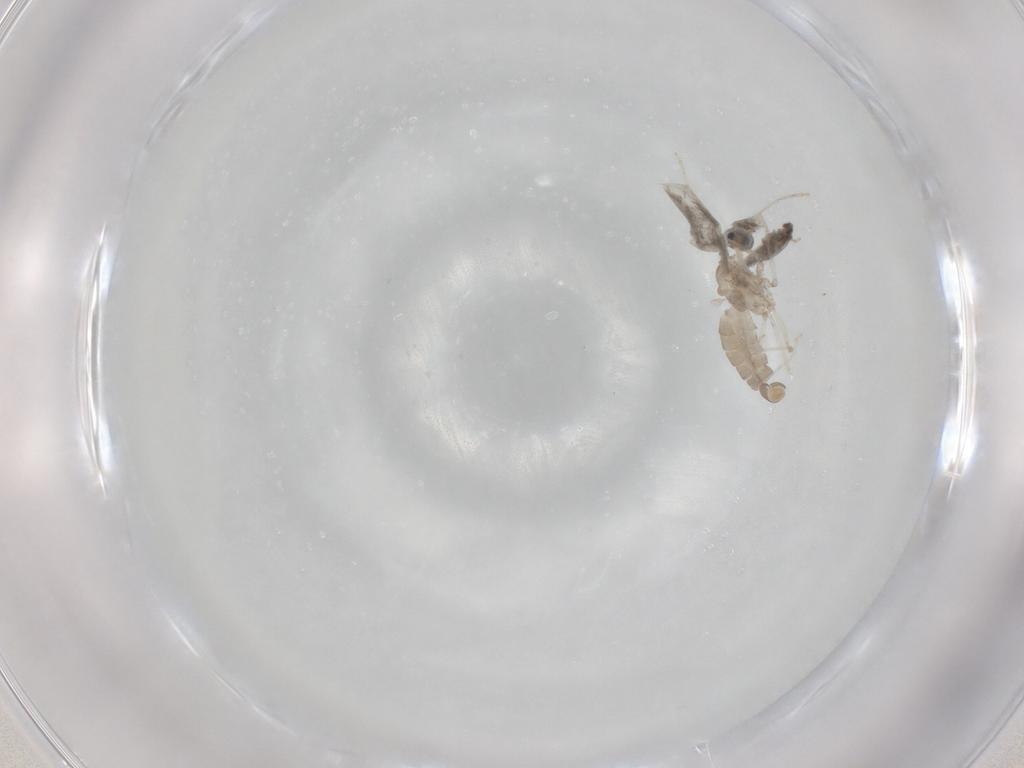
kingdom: Animalia
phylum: Arthropoda
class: Insecta
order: Diptera
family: Cecidomyiidae
